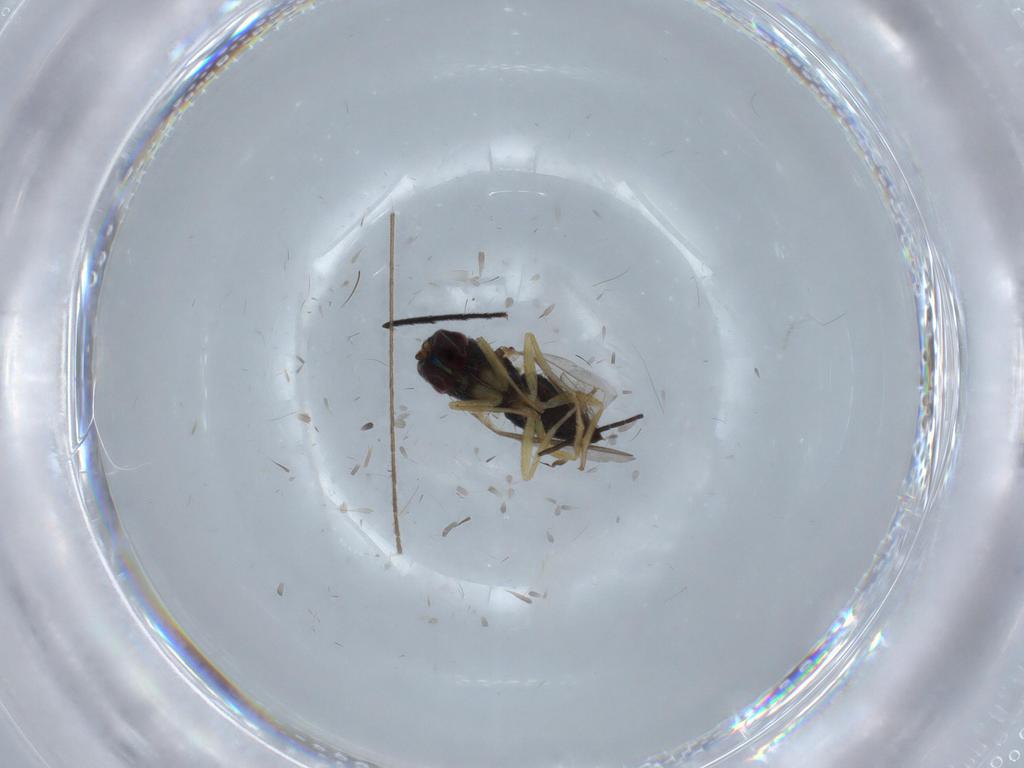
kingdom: Animalia
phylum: Arthropoda
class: Insecta
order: Diptera
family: Dolichopodidae
